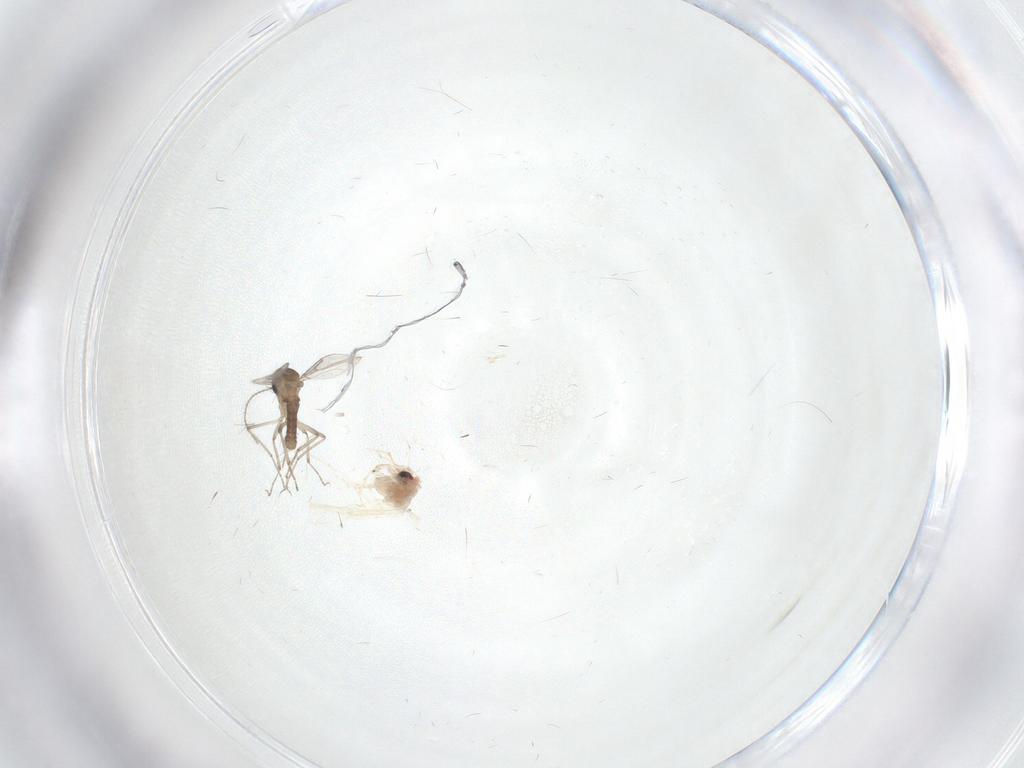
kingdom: Animalia
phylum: Arthropoda
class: Insecta
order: Diptera
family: Ceratopogonidae
